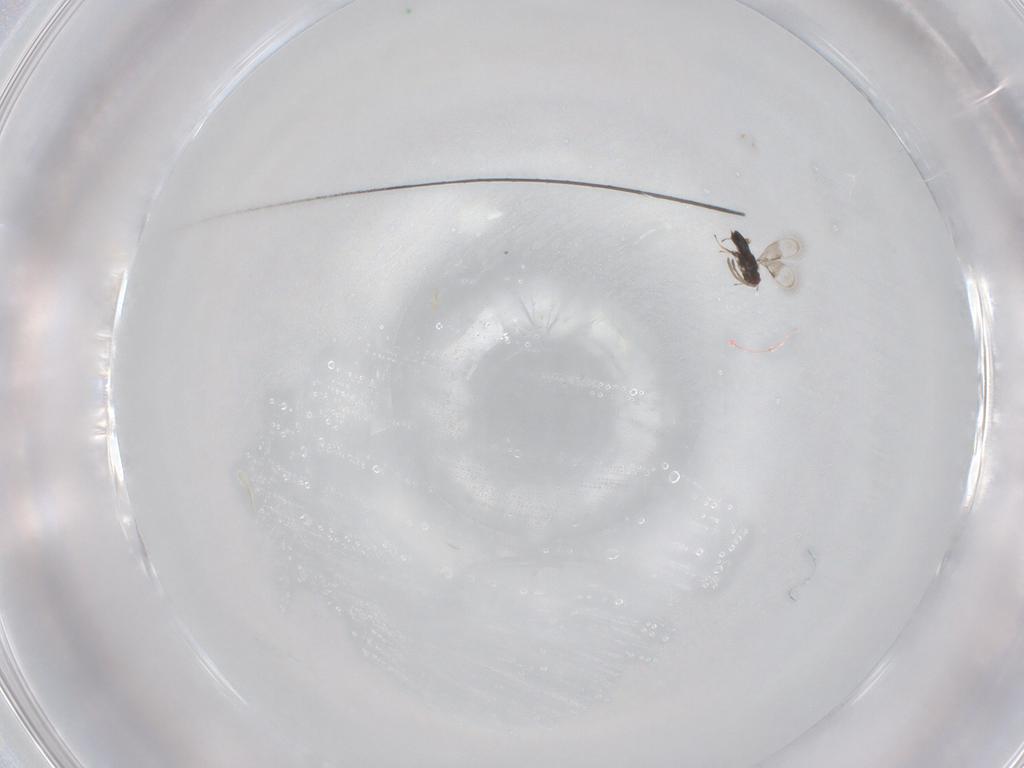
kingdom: Animalia
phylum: Arthropoda
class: Insecta
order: Hymenoptera
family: Aphelinidae
